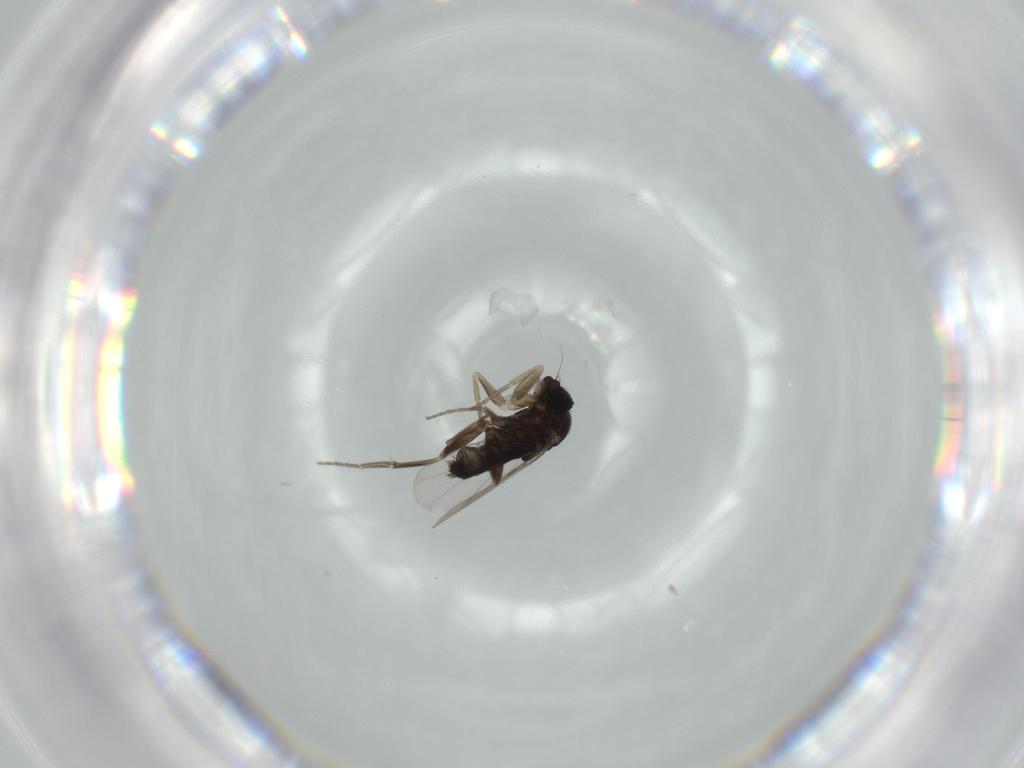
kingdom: Animalia
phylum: Arthropoda
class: Insecta
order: Diptera
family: Phoridae
